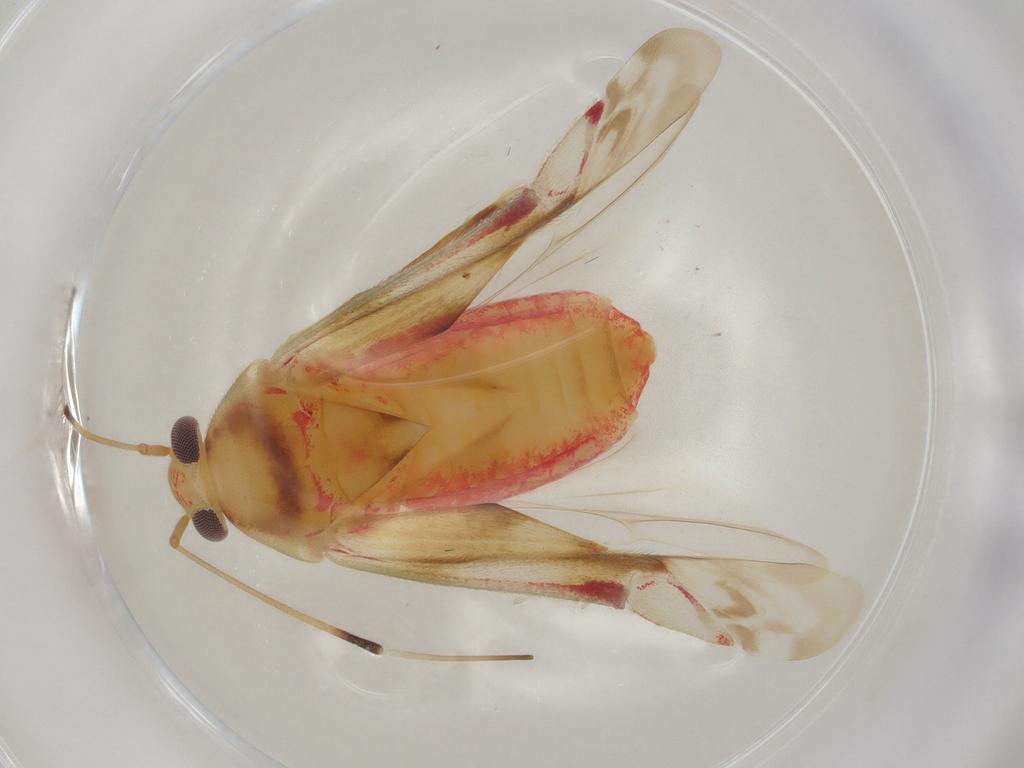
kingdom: Animalia
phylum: Arthropoda
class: Insecta
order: Hemiptera
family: Miridae
